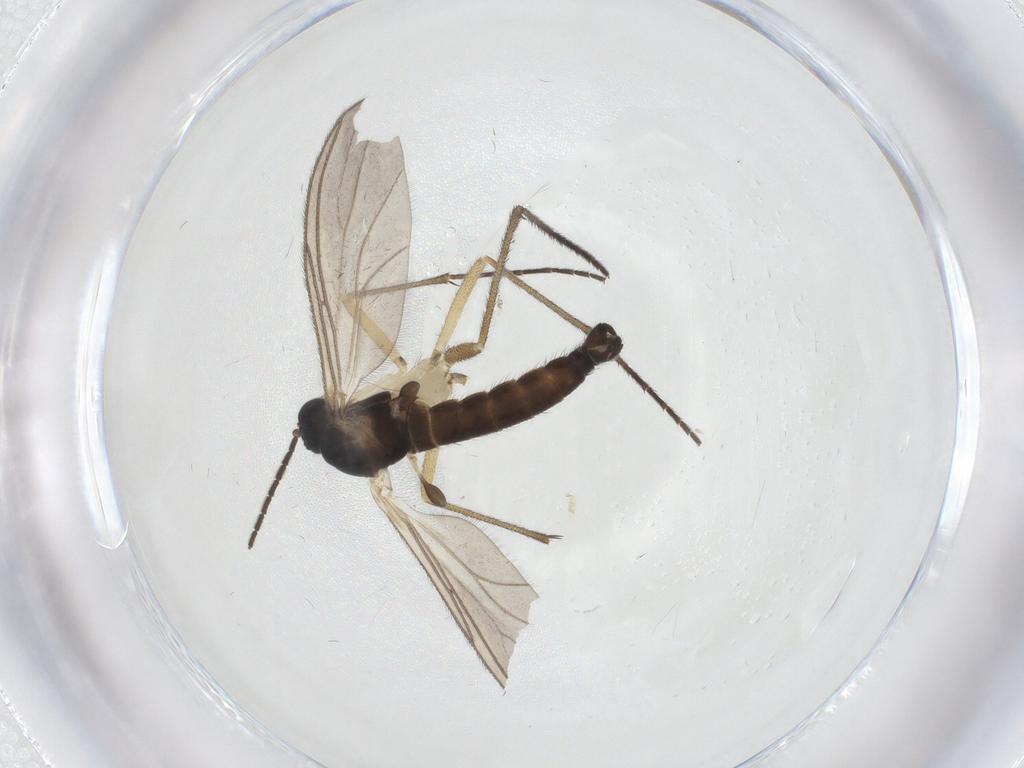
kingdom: Animalia
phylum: Arthropoda
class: Insecta
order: Diptera
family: Sciaridae
